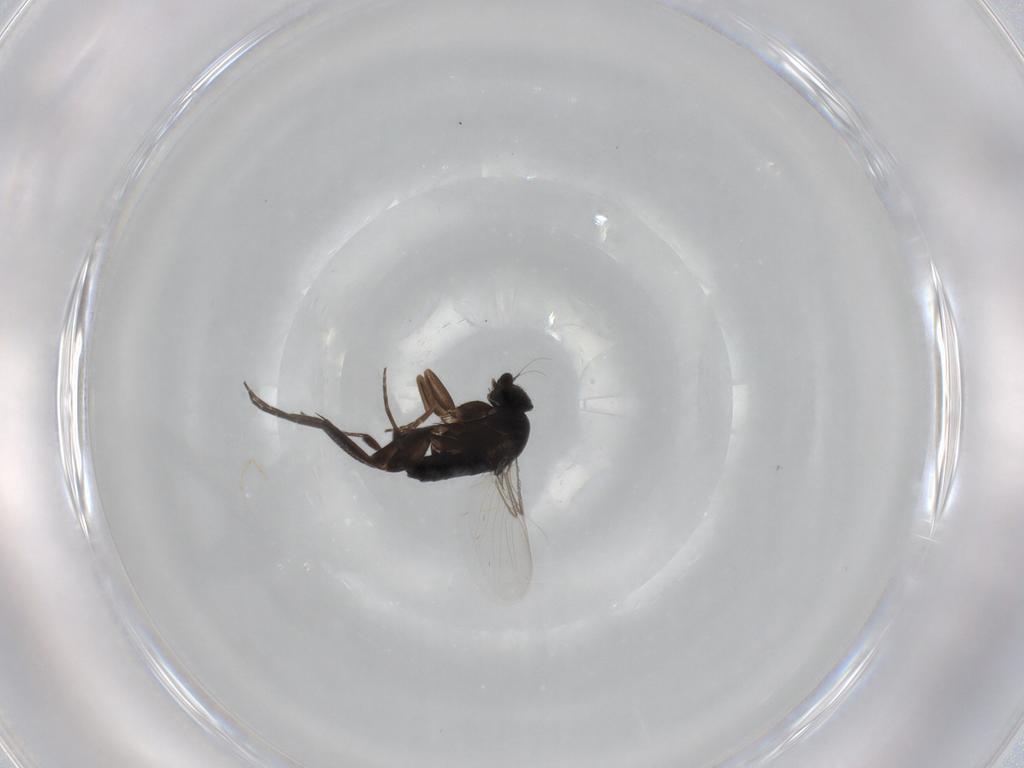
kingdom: Animalia
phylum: Arthropoda
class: Insecta
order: Diptera
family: Phoridae
